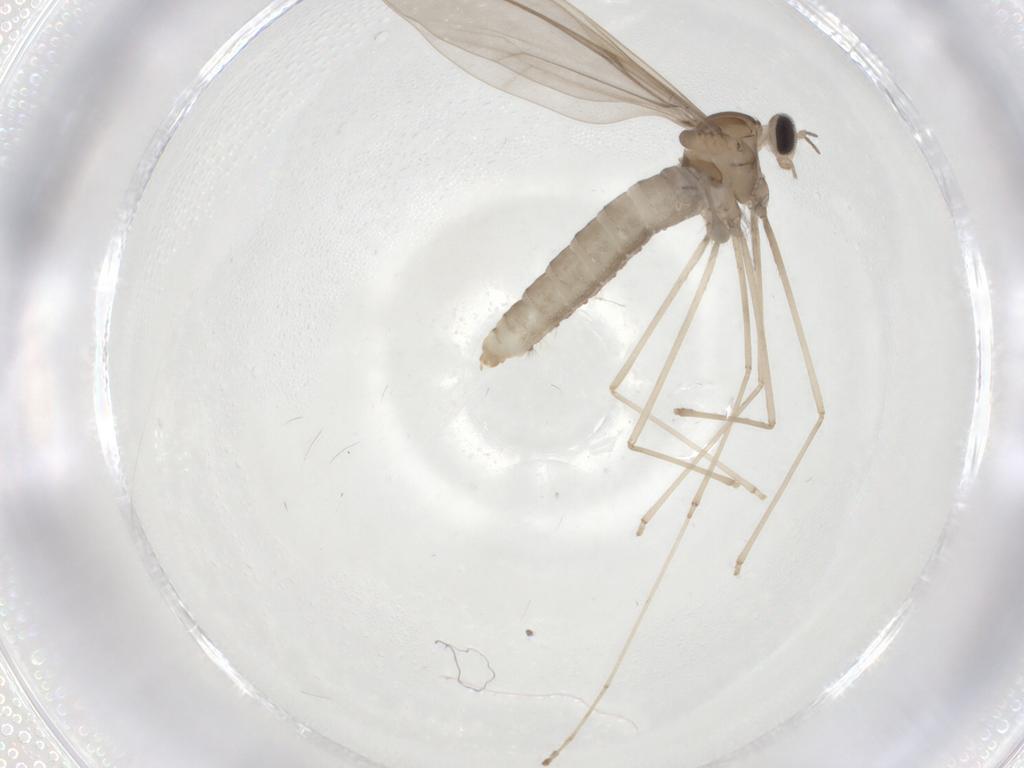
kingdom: Animalia
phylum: Arthropoda
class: Insecta
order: Diptera
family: Cecidomyiidae
